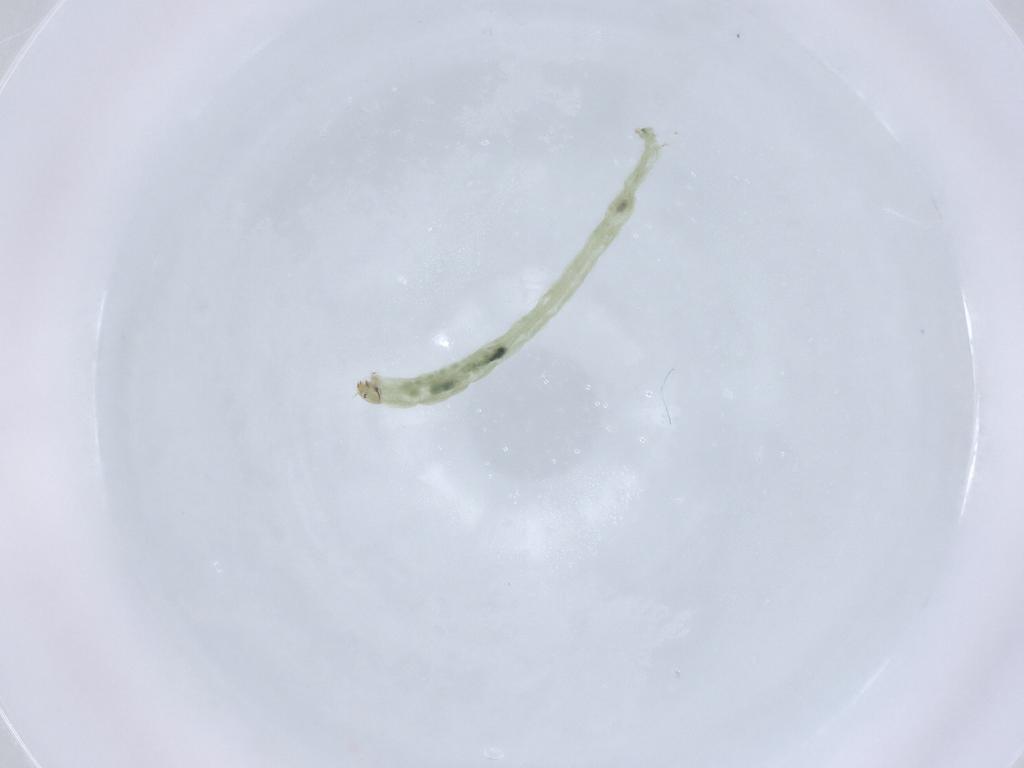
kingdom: Animalia
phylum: Arthropoda
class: Insecta
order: Diptera
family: Chironomidae
